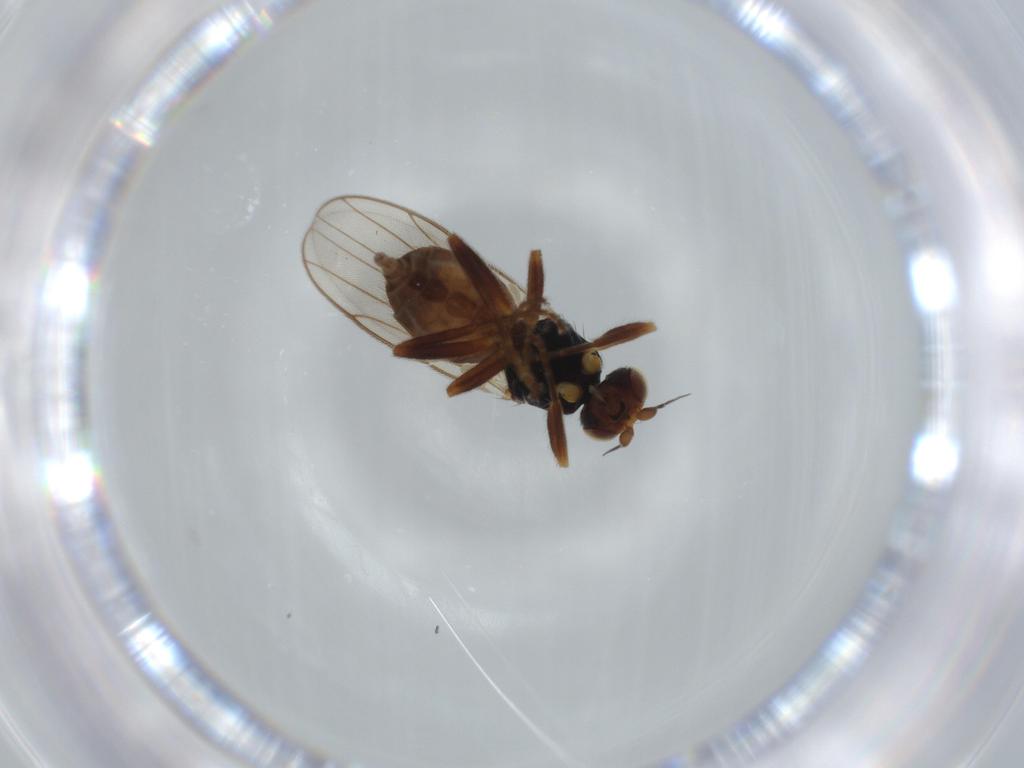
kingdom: Animalia
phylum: Arthropoda
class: Insecta
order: Diptera
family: Chloropidae
